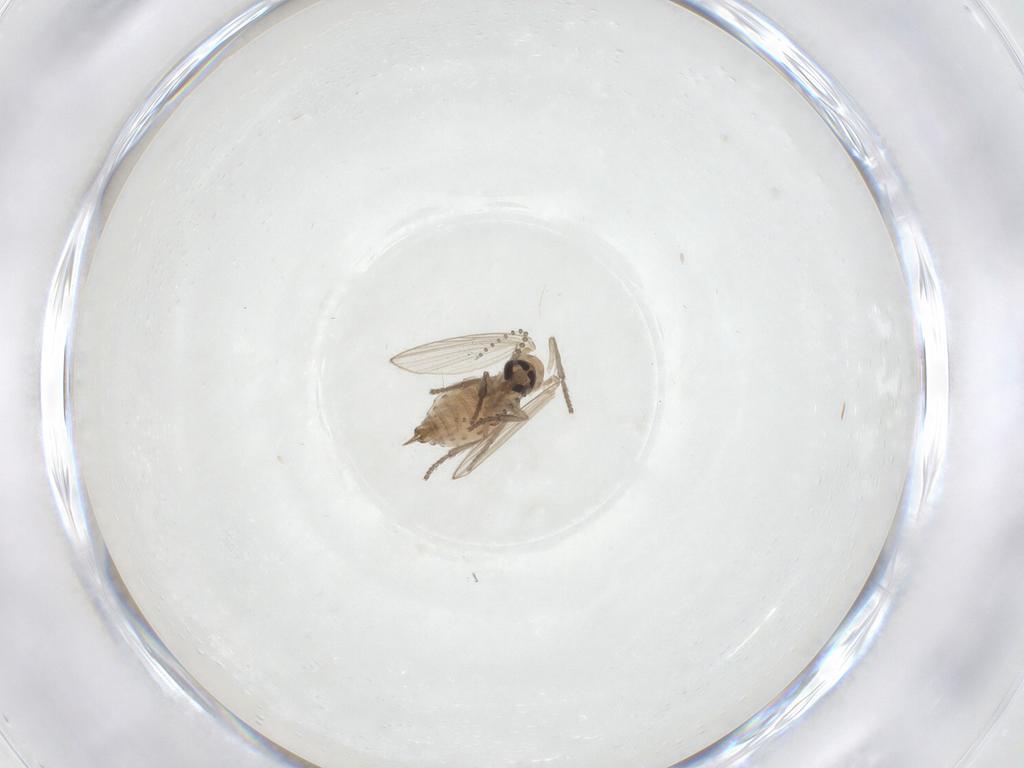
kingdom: Animalia
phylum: Arthropoda
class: Insecta
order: Diptera
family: Psychodidae
